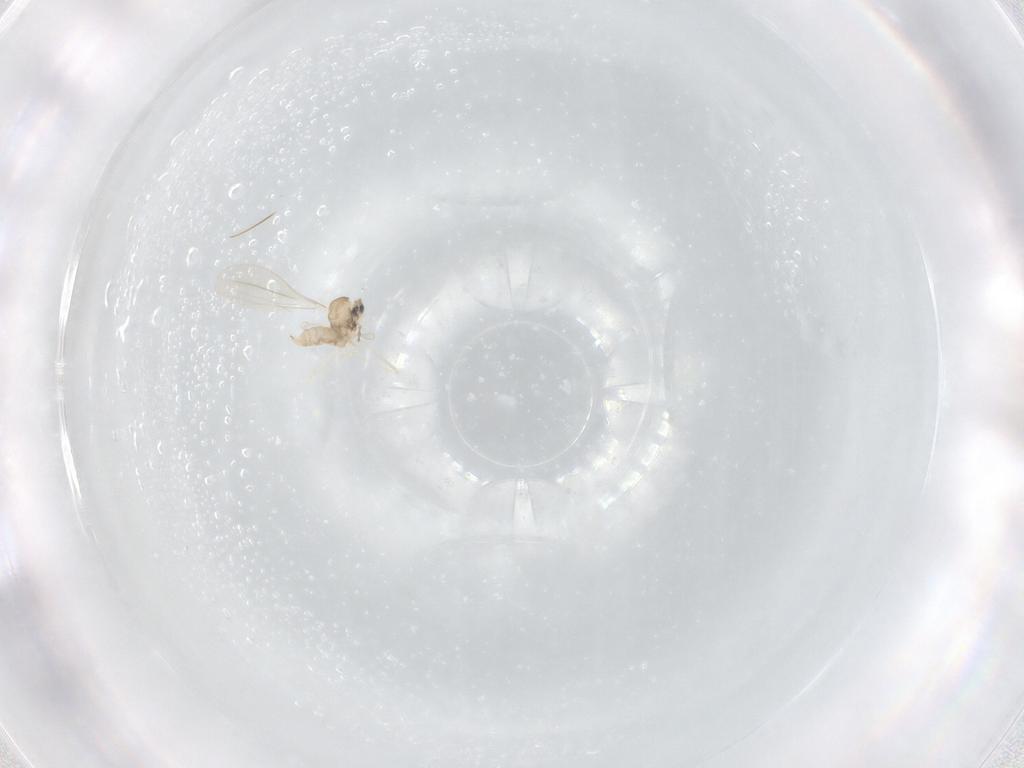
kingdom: Animalia
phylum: Arthropoda
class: Insecta
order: Diptera
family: Cecidomyiidae
